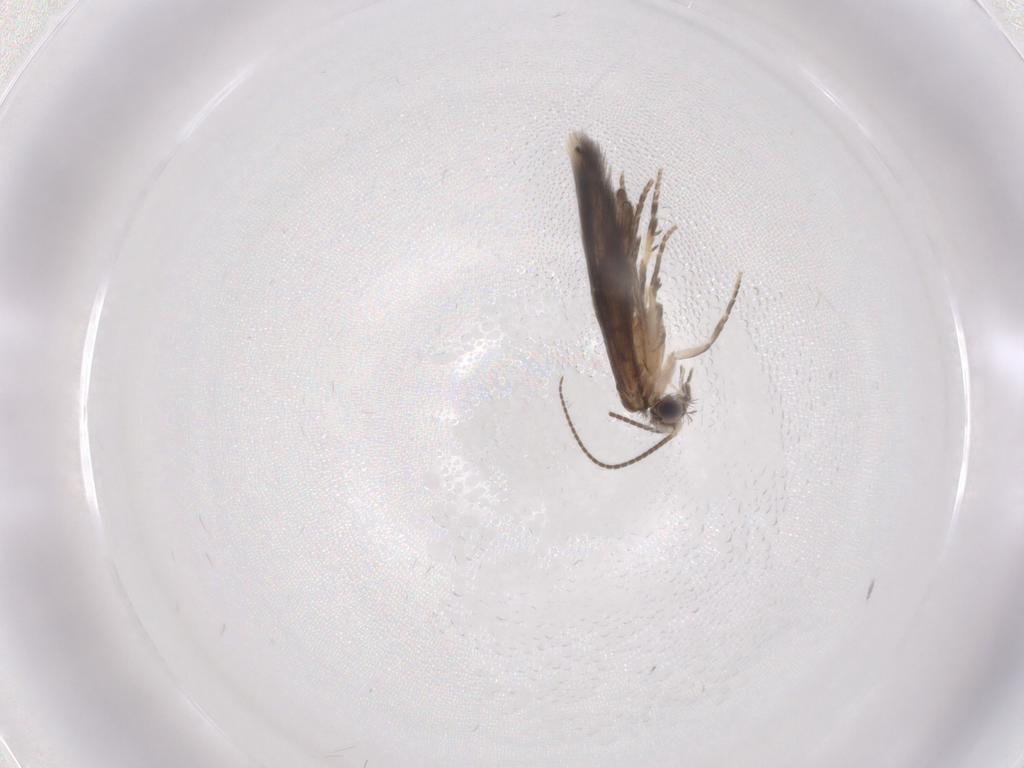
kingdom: Animalia
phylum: Arthropoda
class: Insecta
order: Trichoptera
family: Hydroptilidae
